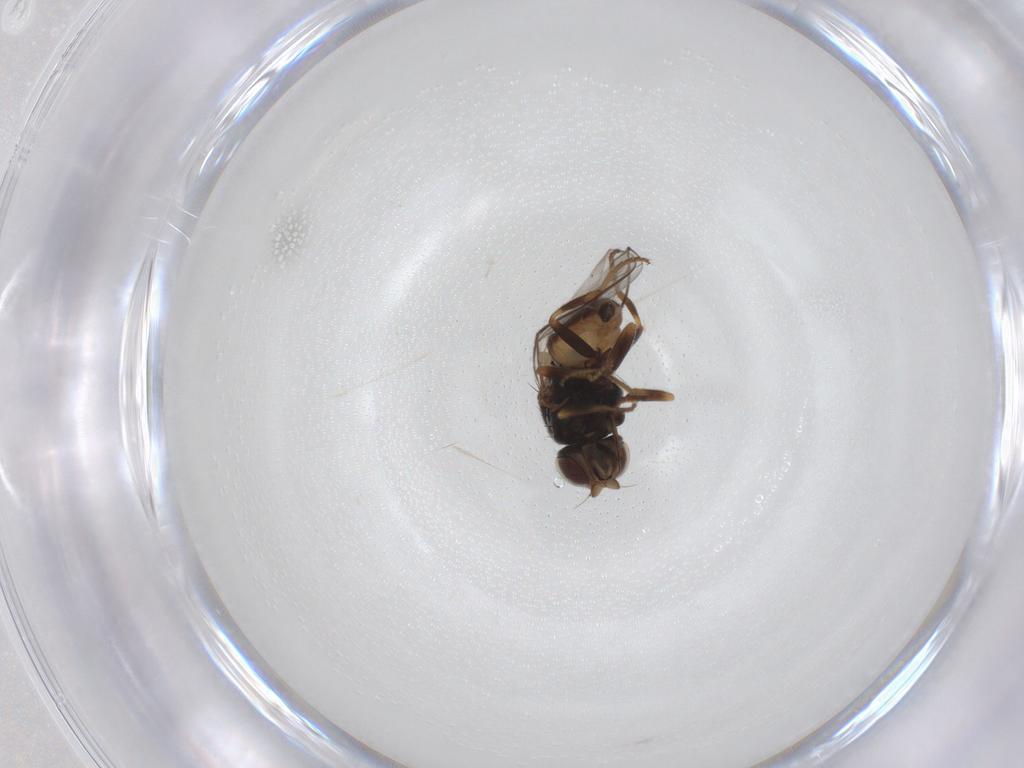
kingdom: Animalia
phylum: Arthropoda
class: Insecta
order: Diptera
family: Chloropidae
